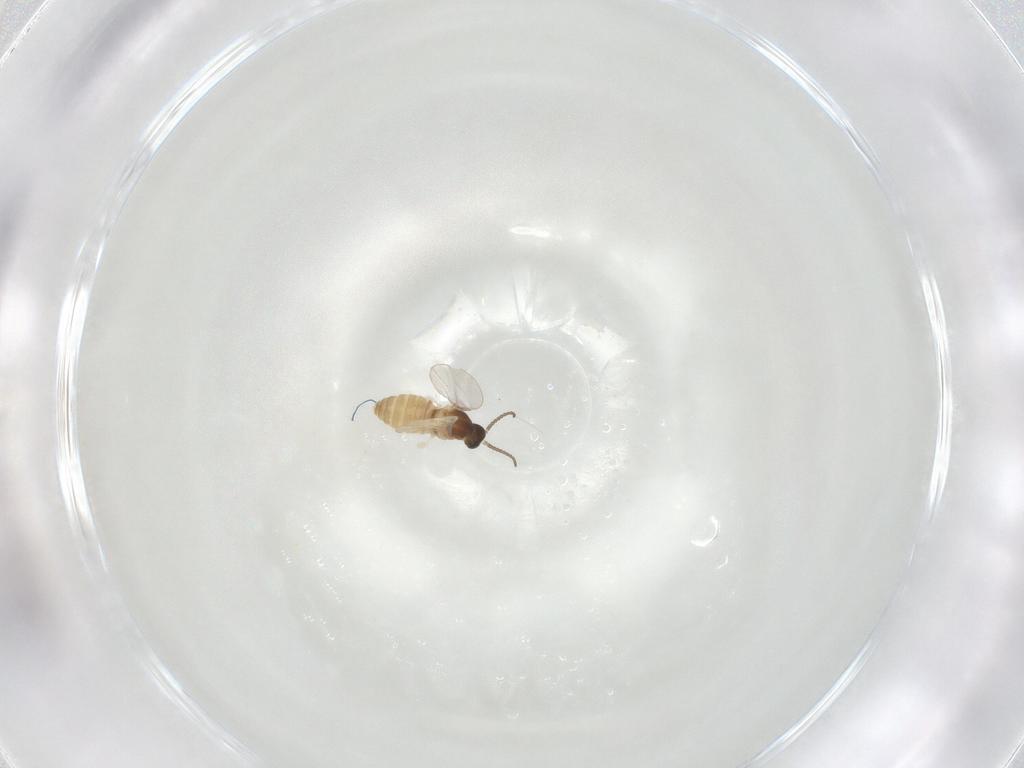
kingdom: Animalia
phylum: Arthropoda
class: Insecta
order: Diptera
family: Cecidomyiidae
